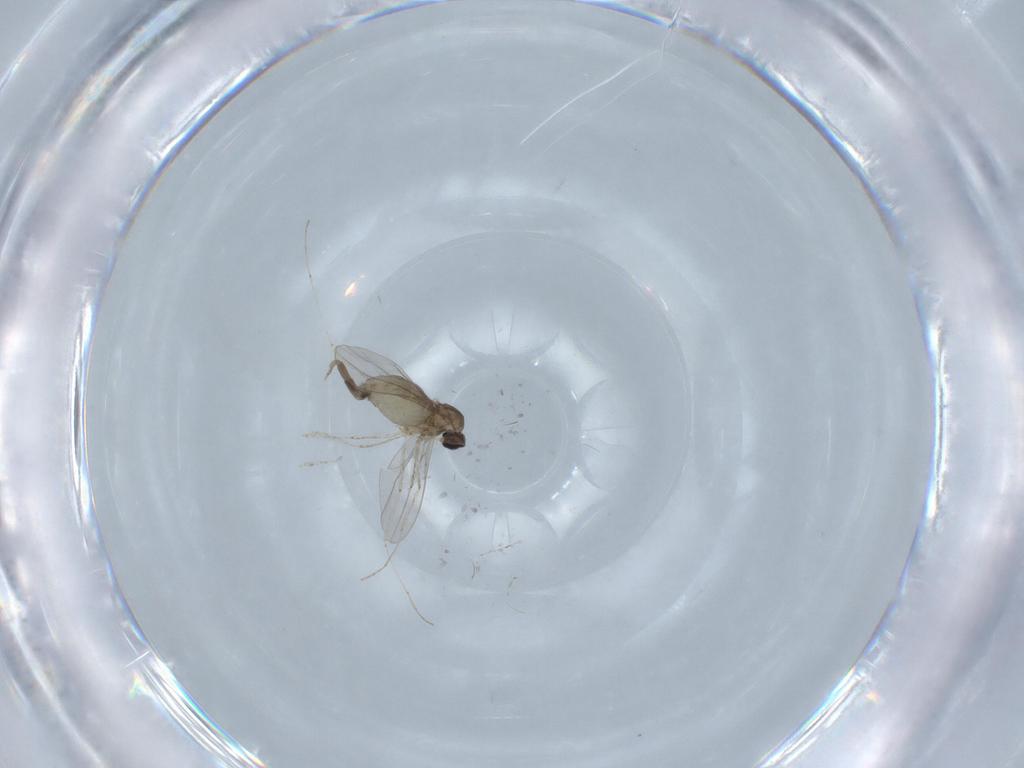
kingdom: Animalia
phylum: Arthropoda
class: Insecta
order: Diptera
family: Cecidomyiidae
